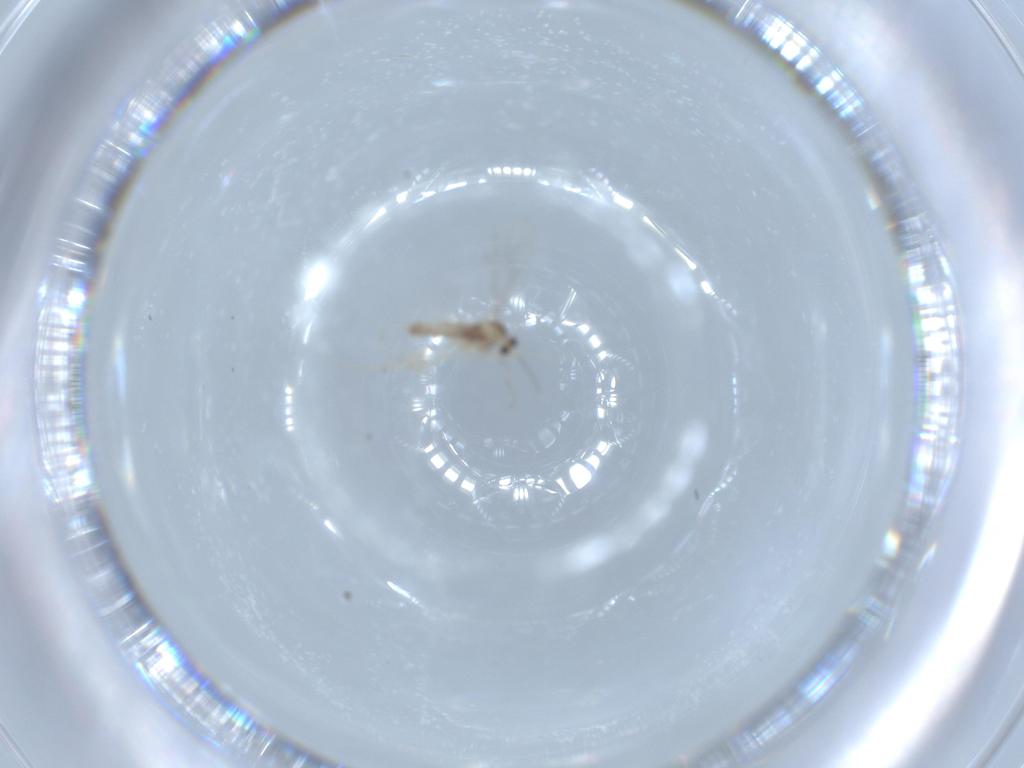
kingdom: Animalia
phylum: Arthropoda
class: Insecta
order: Diptera
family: Cecidomyiidae
